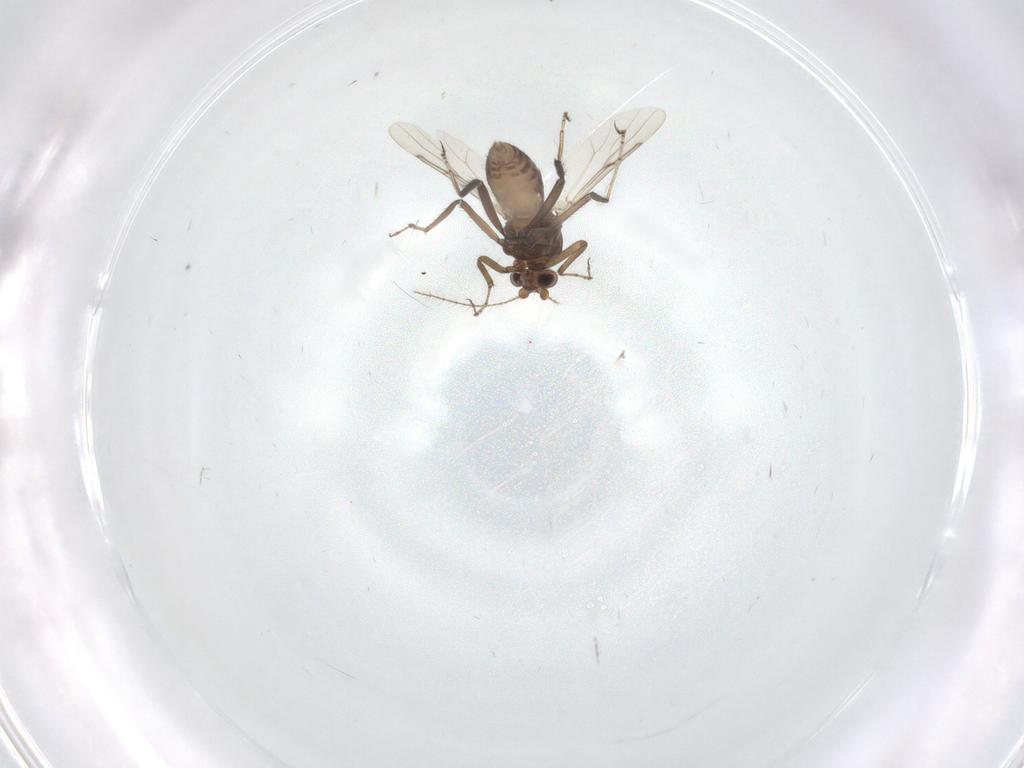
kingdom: Animalia
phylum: Arthropoda
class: Insecta
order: Diptera
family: Ceratopogonidae
